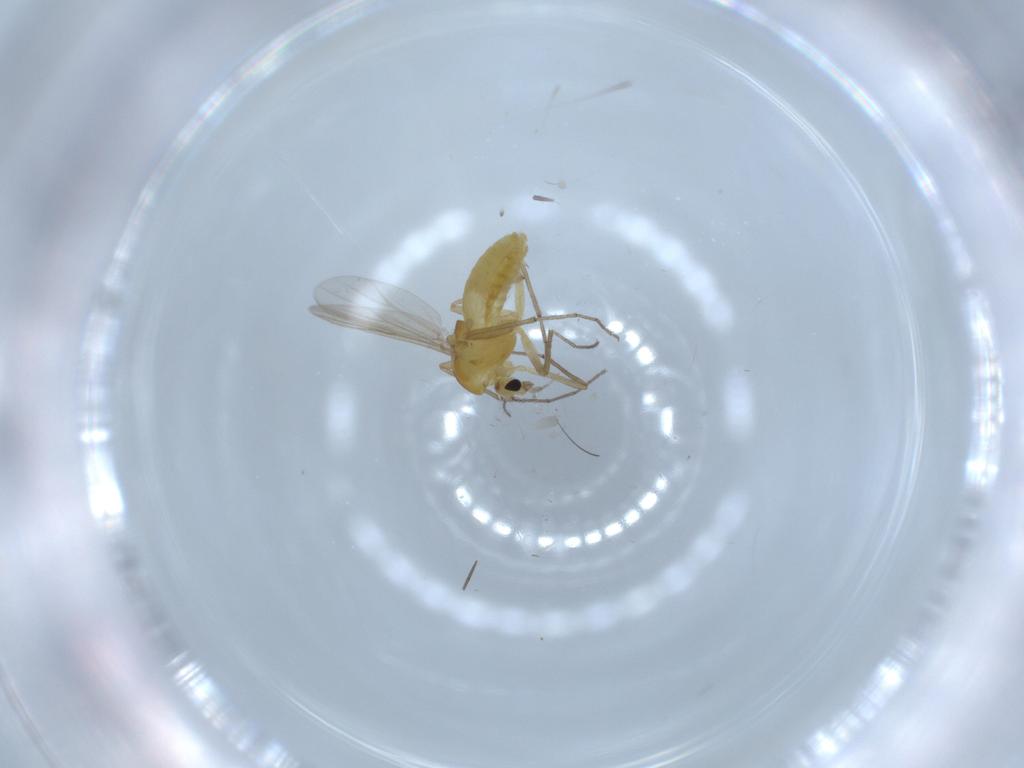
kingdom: Animalia
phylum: Arthropoda
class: Insecta
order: Diptera
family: Chironomidae
